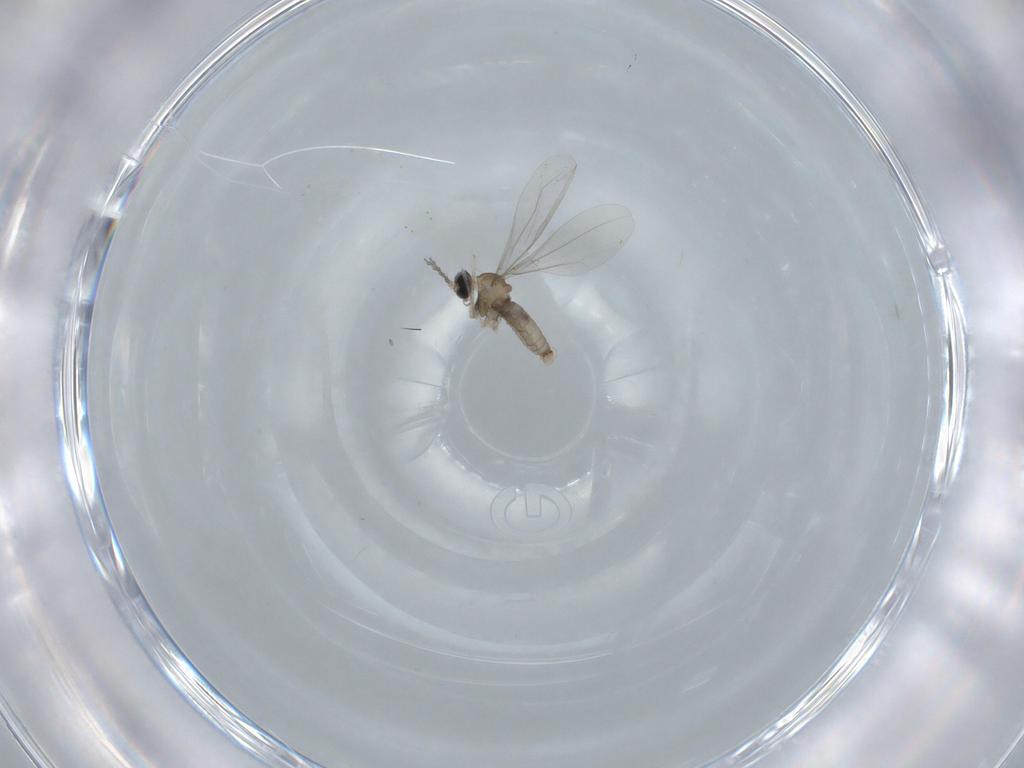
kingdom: Animalia
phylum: Arthropoda
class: Insecta
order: Diptera
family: Cecidomyiidae
